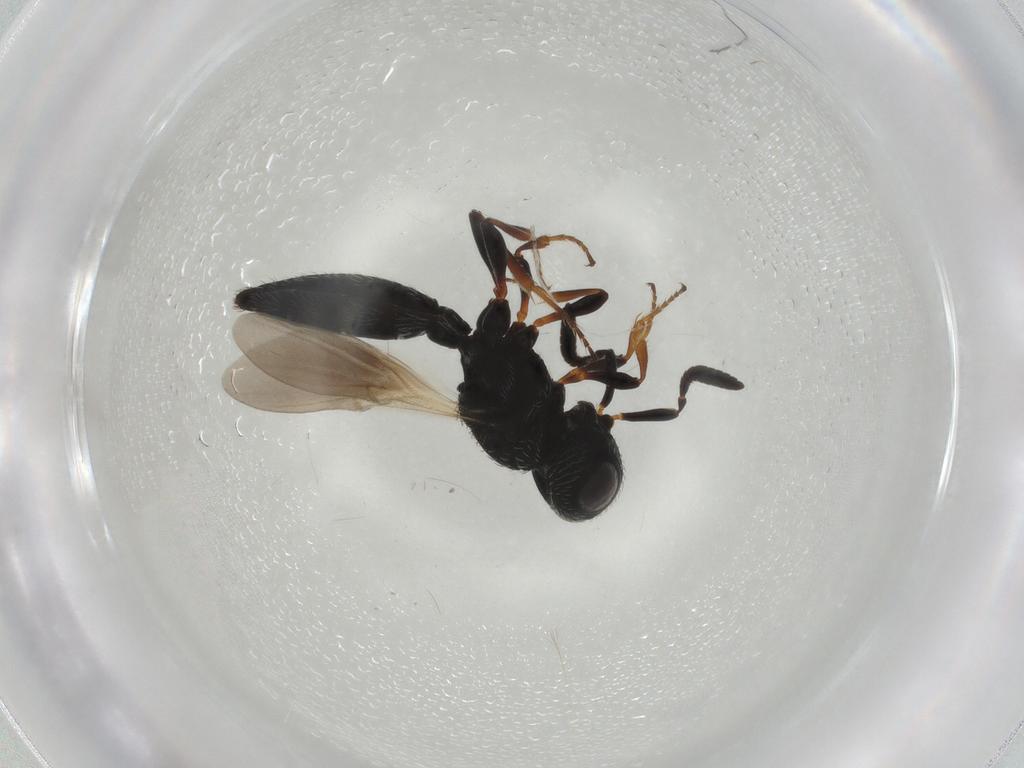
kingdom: Animalia
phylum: Arthropoda
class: Insecta
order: Hymenoptera
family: Scelionidae
